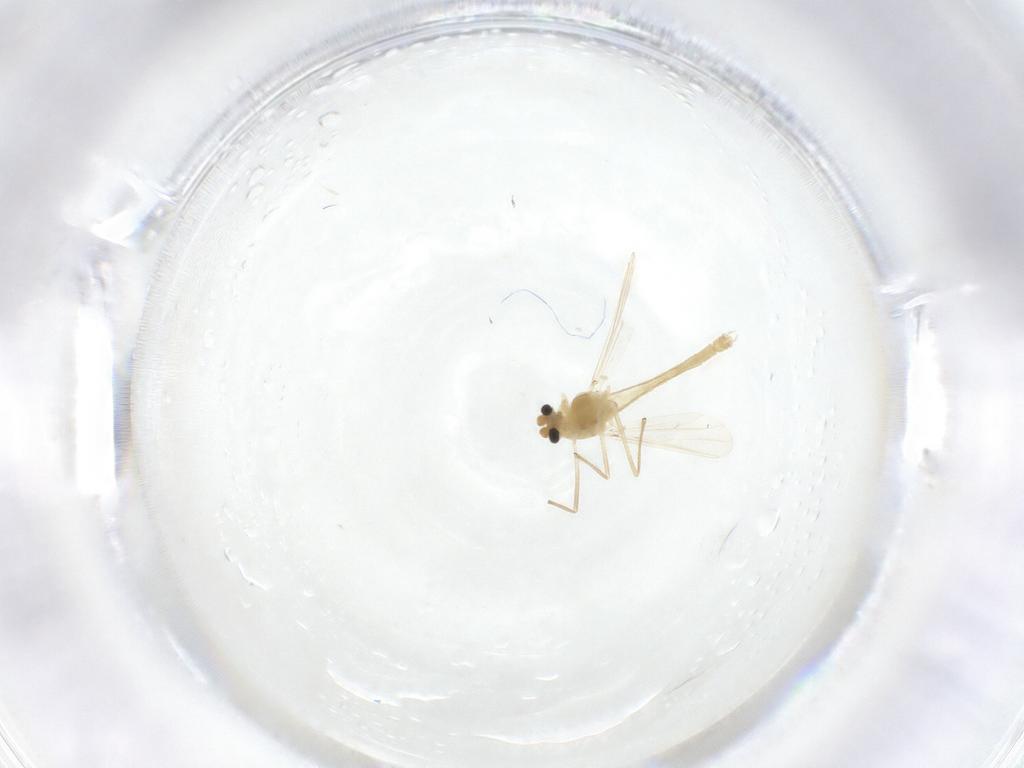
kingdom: Animalia
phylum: Arthropoda
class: Insecta
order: Diptera
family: Chironomidae
